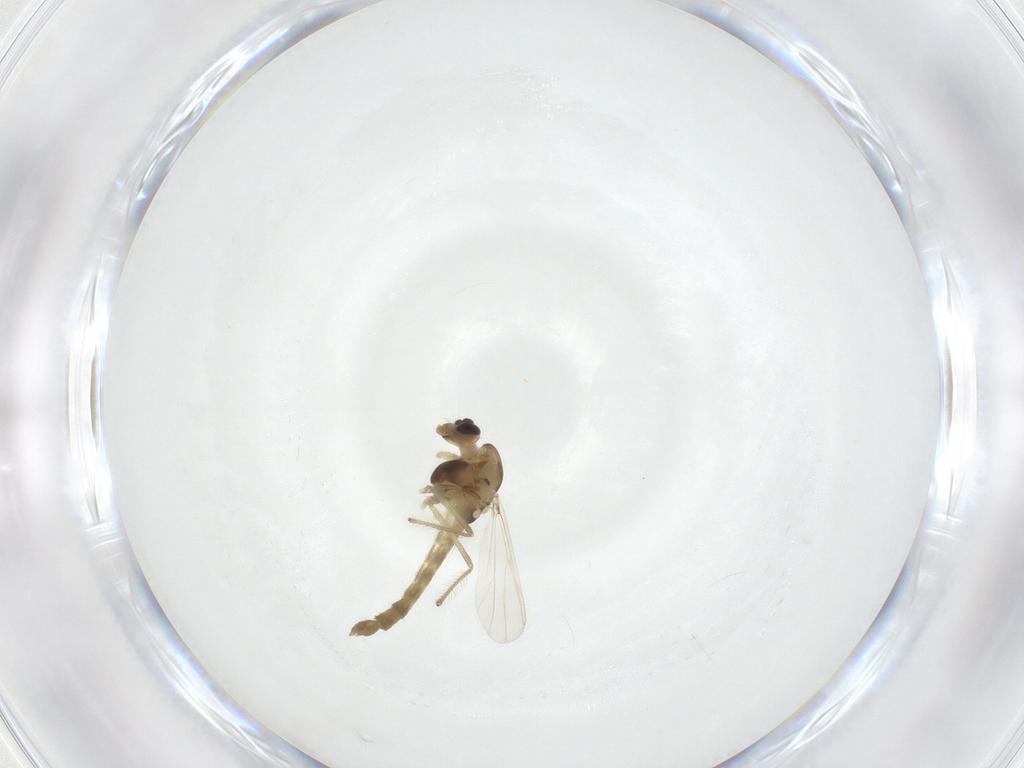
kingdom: Animalia
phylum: Arthropoda
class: Insecta
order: Diptera
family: Chironomidae
